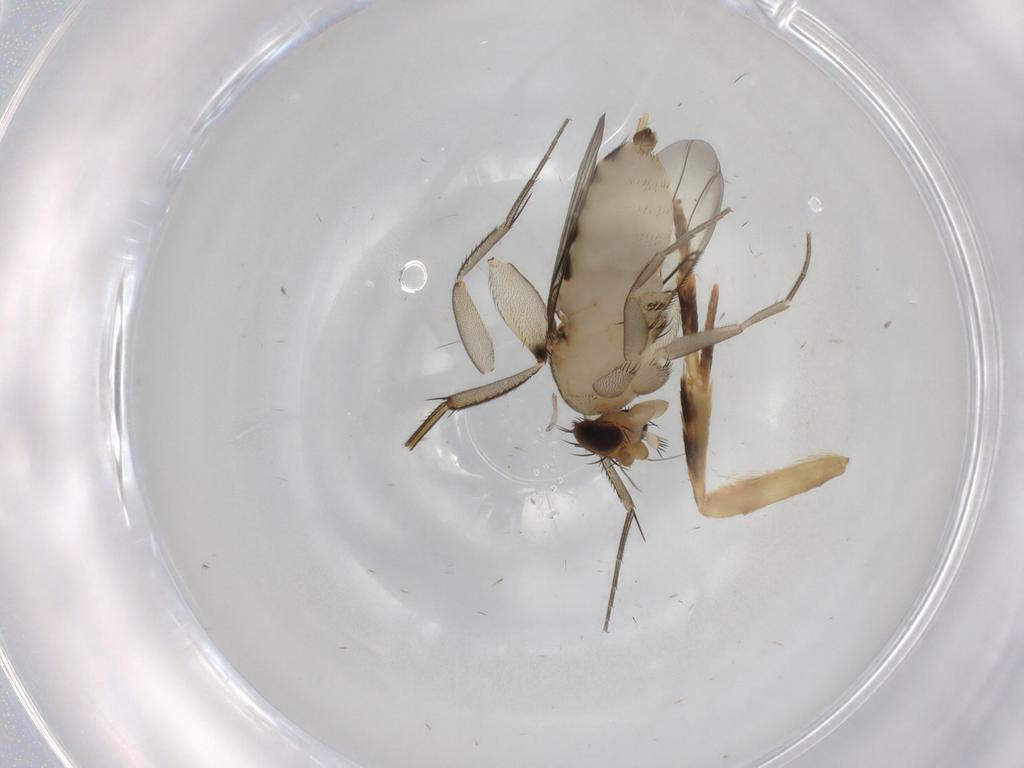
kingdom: Animalia
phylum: Arthropoda
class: Insecta
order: Diptera
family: Phoridae
